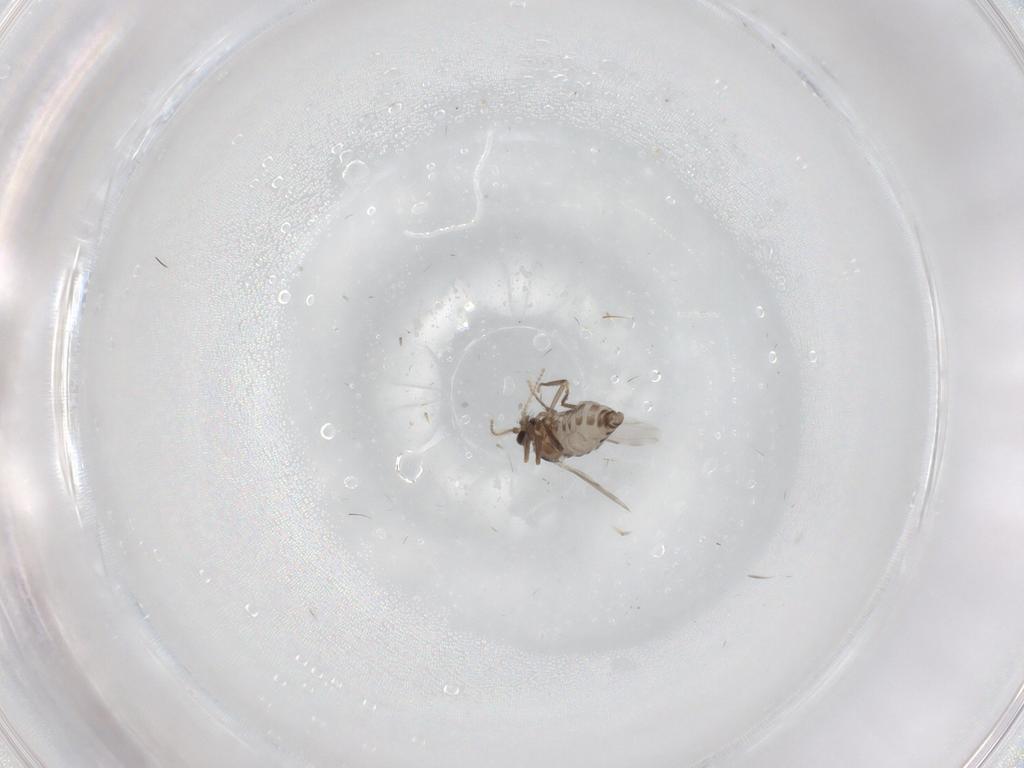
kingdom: Animalia
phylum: Arthropoda
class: Insecta
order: Diptera
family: Ceratopogonidae
